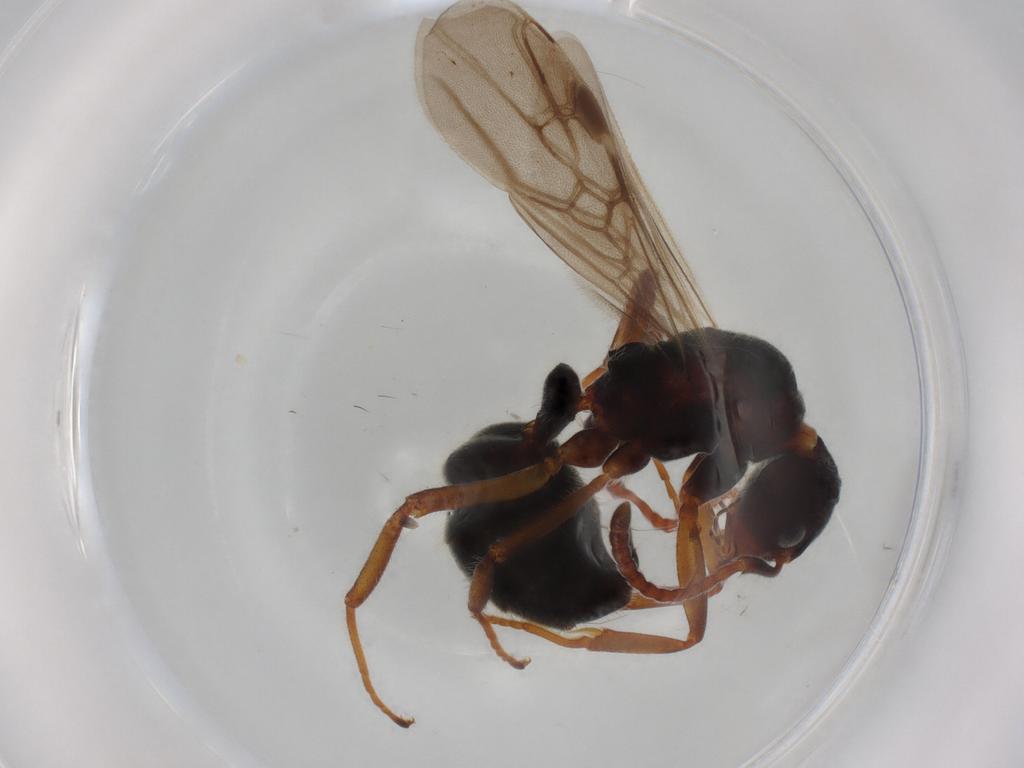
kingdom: Animalia
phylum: Arthropoda
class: Insecta
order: Hymenoptera
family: Formicidae
